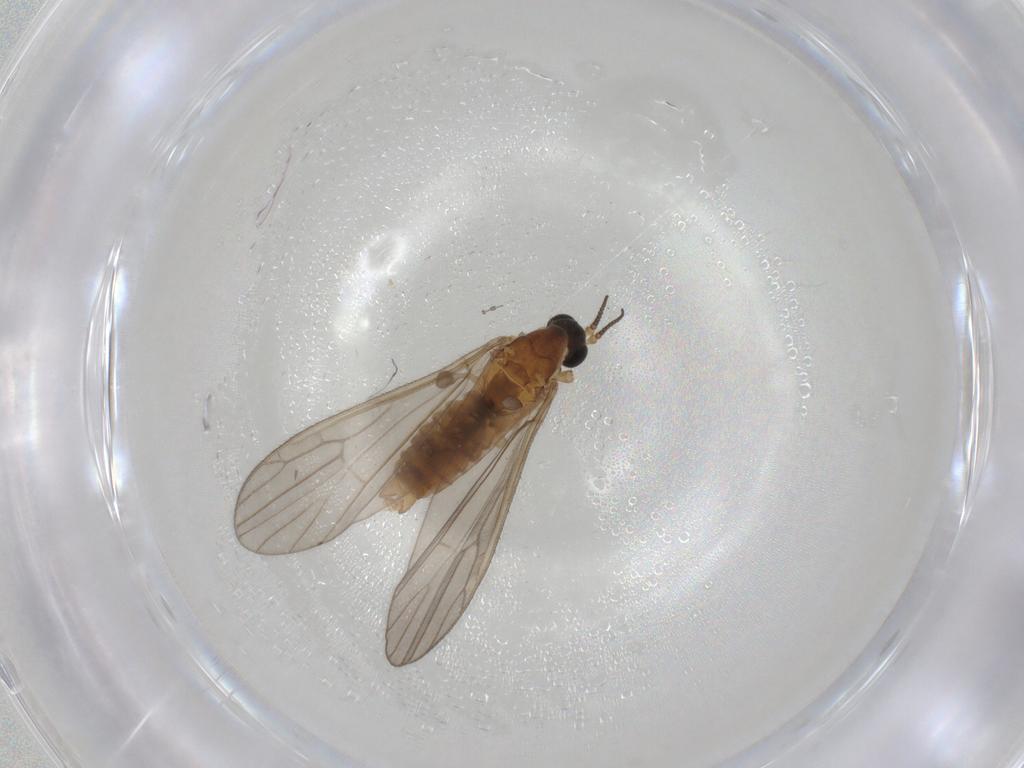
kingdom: Animalia
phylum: Arthropoda
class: Insecta
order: Diptera
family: Limoniidae
